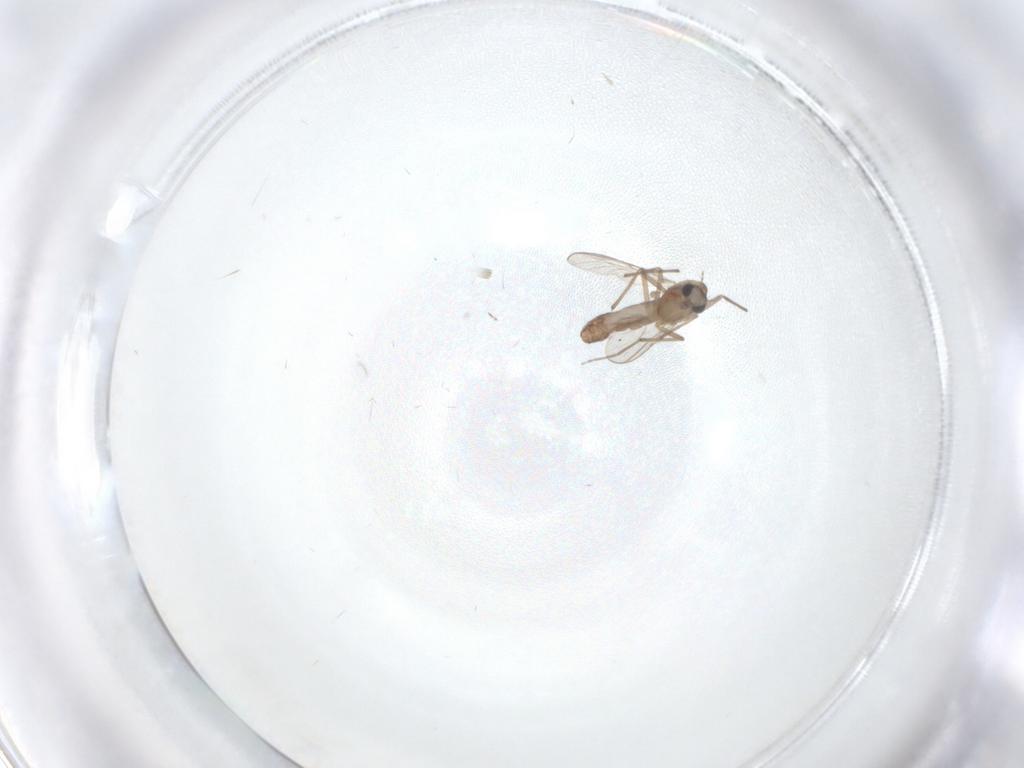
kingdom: Animalia
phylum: Arthropoda
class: Insecta
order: Diptera
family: Chironomidae
